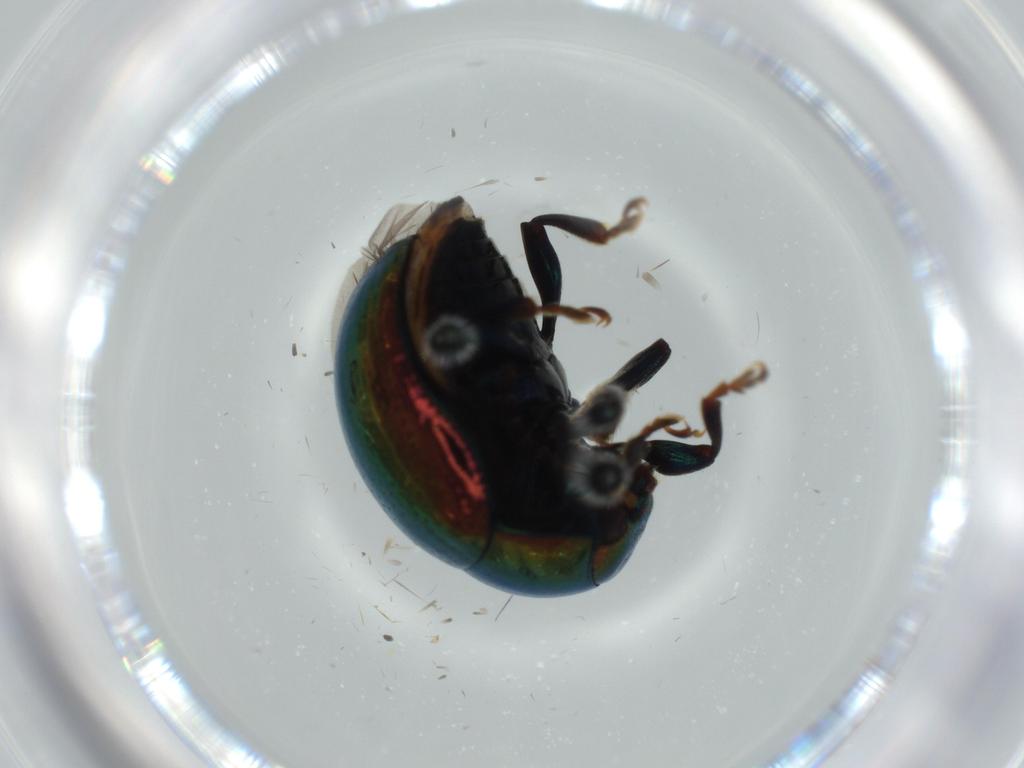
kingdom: Animalia
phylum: Arthropoda
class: Insecta
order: Coleoptera
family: Chrysomelidae
